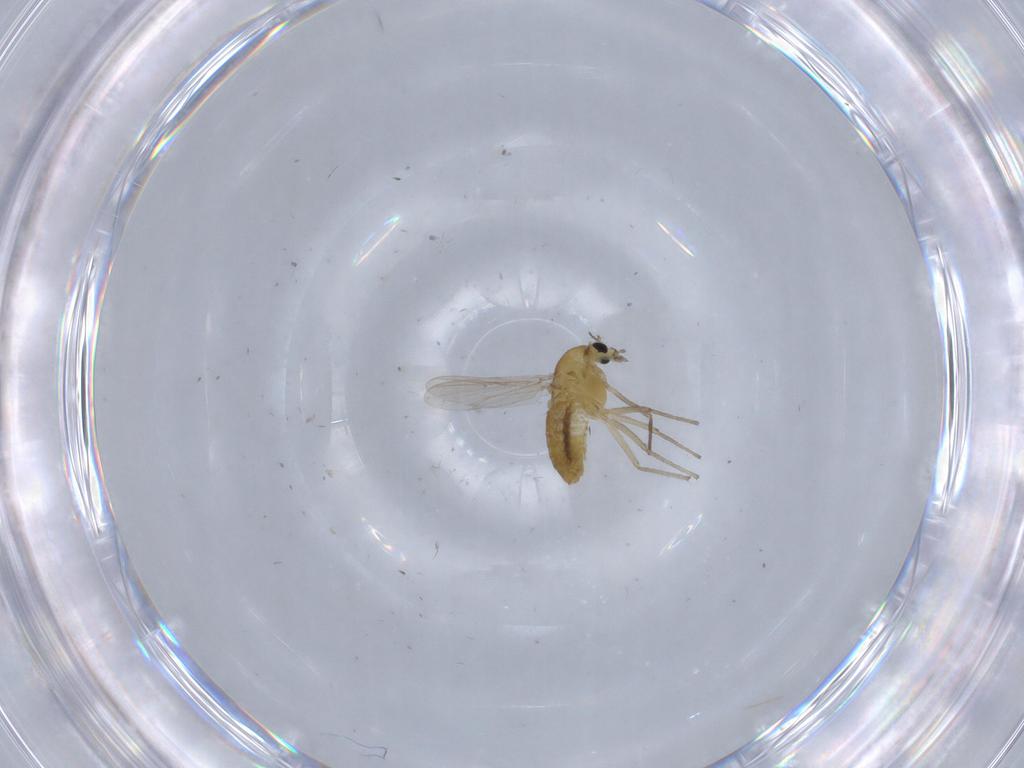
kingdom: Animalia
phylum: Arthropoda
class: Insecta
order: Diptera
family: Chironomidae
